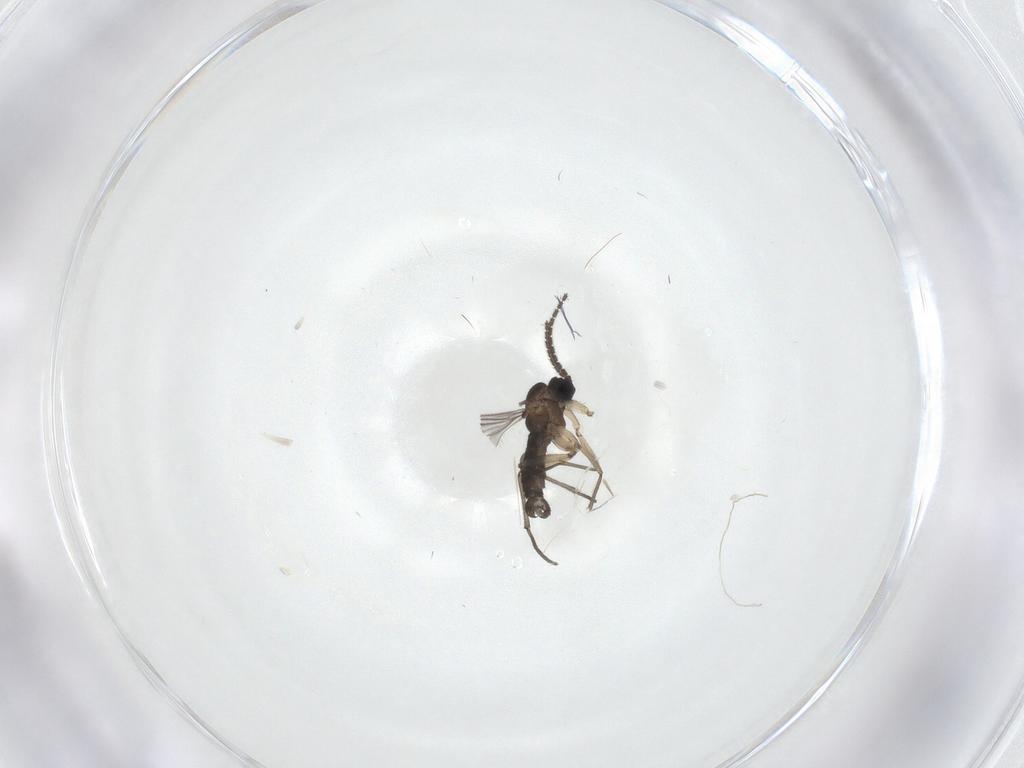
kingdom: Animalia
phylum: Arthropoda
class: Insecta
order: Diptera
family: Sciaridae
